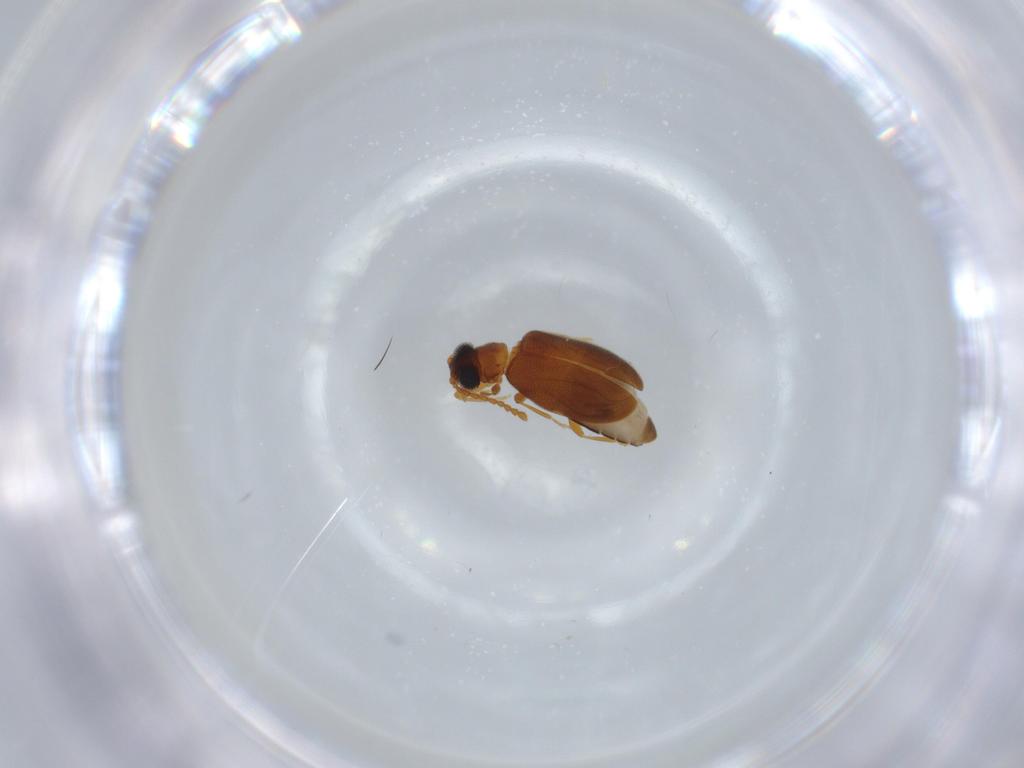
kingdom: Animalia
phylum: Arthropoda
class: Insecta
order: Coleoptera
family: Aderidae
